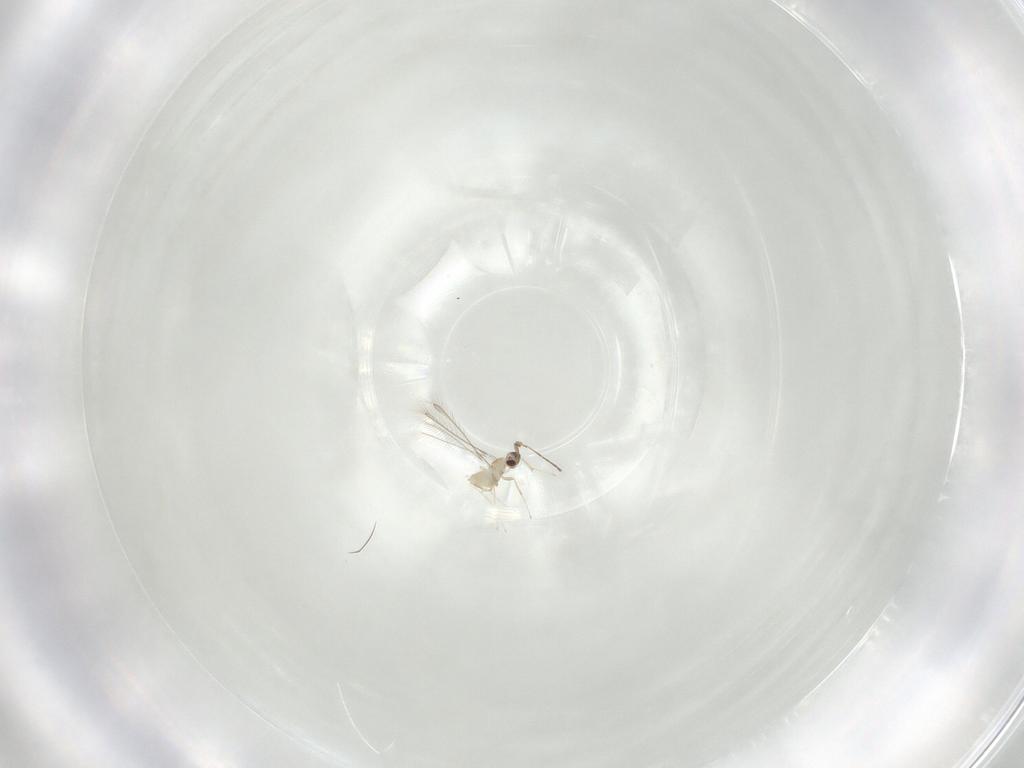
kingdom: Animalia
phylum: Arthropoda
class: Insecta
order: Hymenoptera
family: Mymaridae
